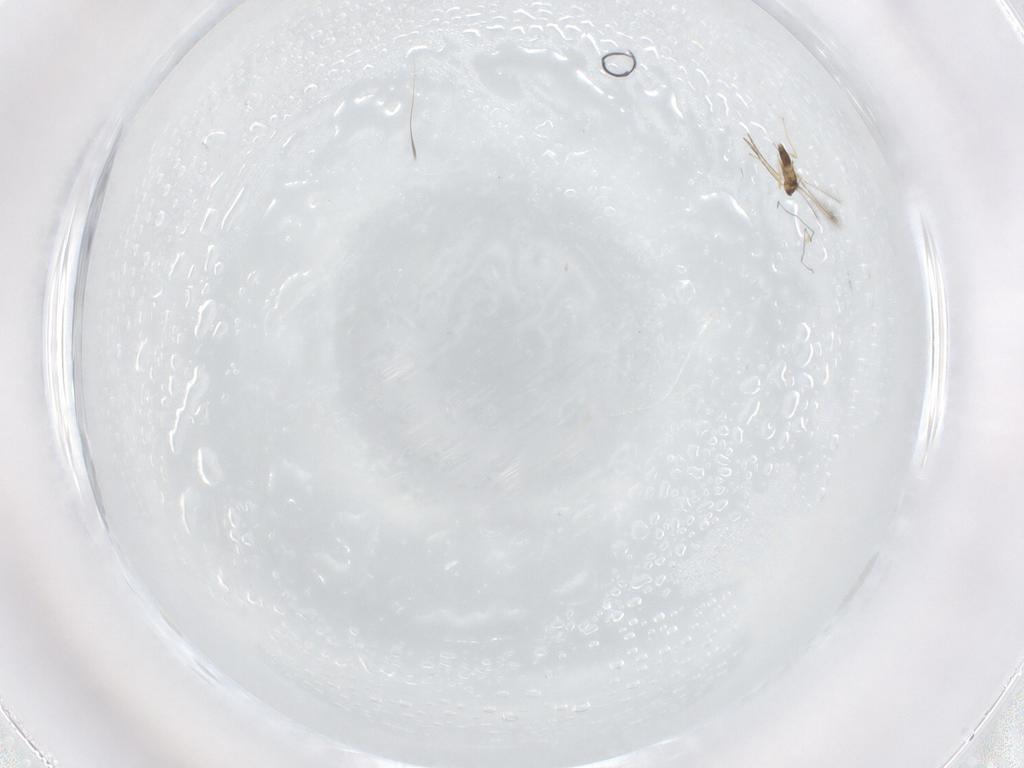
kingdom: Animalia
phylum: Arthropoda
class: Insecta
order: Hymenoptera
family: Mymaridae
